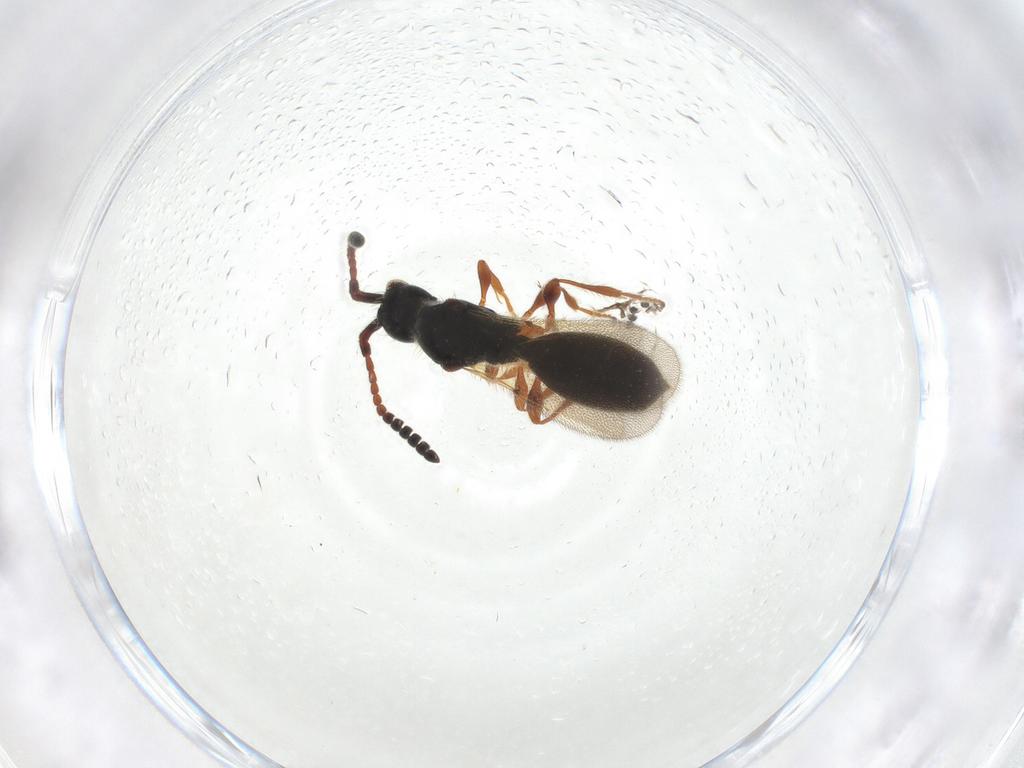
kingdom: Animalia
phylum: Arthropoda
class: Insecta
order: Hymenoptera
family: Diapriidae
